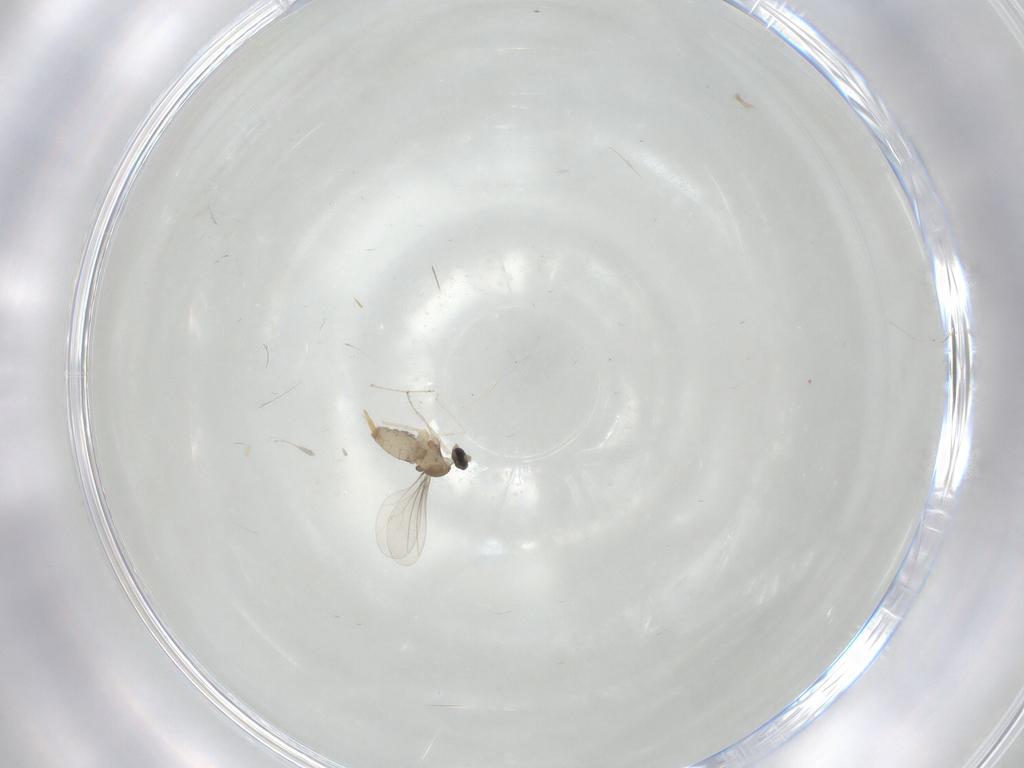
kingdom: Animalia
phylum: Arthropoda
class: Insecta
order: Diptera
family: Cecidomyiidae
